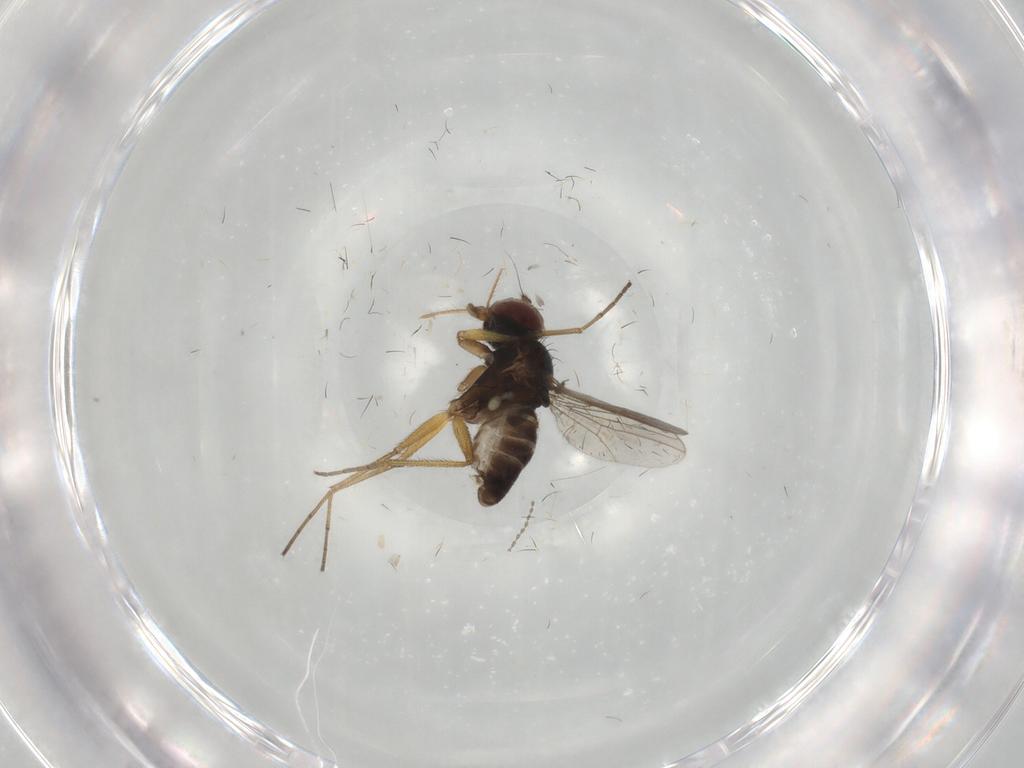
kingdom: Animalia
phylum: Arthropoda
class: Insecta
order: Diptera
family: Dolichopodidae
